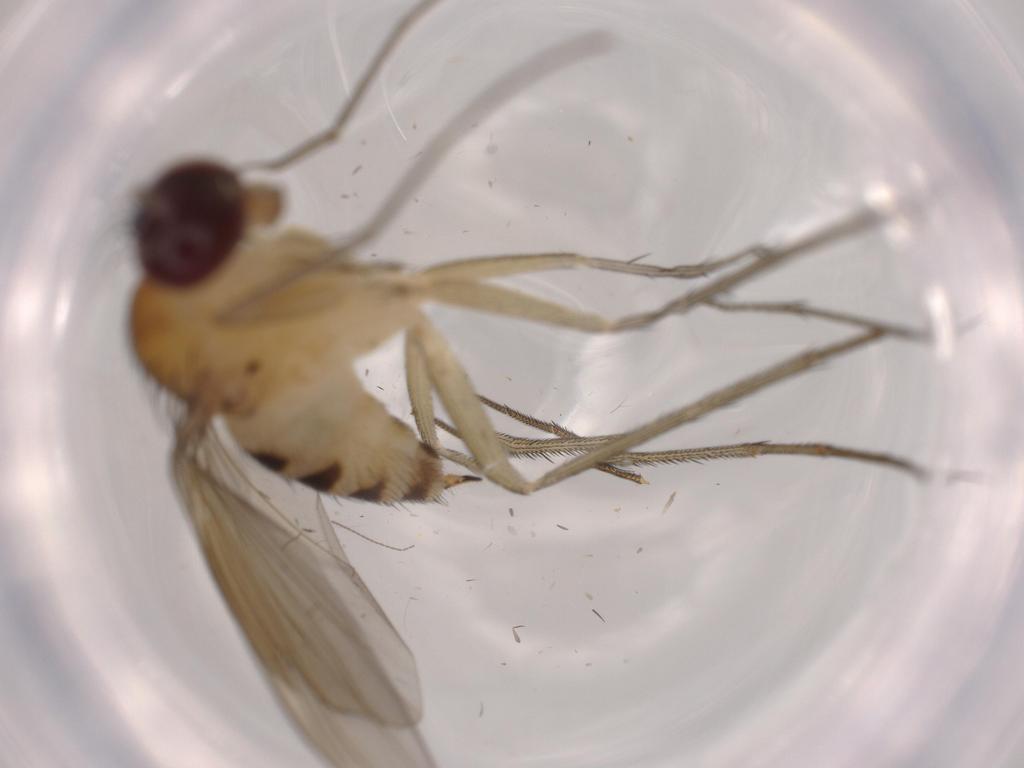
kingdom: Animalia
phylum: Arthropoda
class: Insecta
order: Diptera
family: Dolichopodidae
